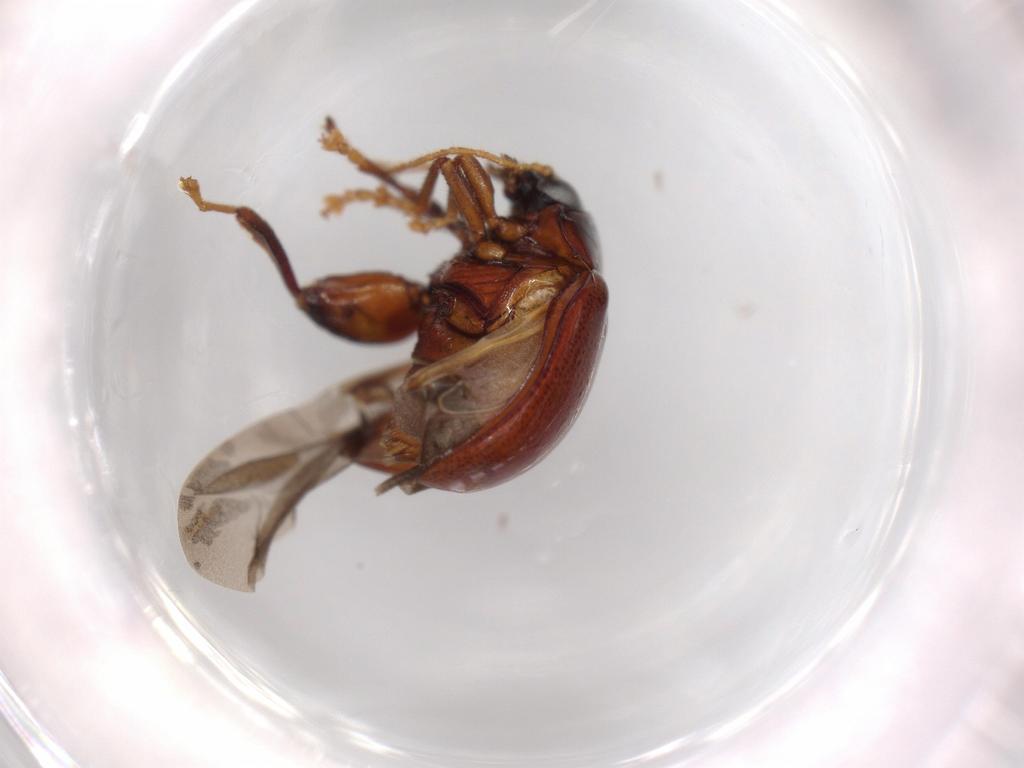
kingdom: Animalia
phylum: Arthropoda
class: Insecta
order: Coleoptera
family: Chrysomelidae
